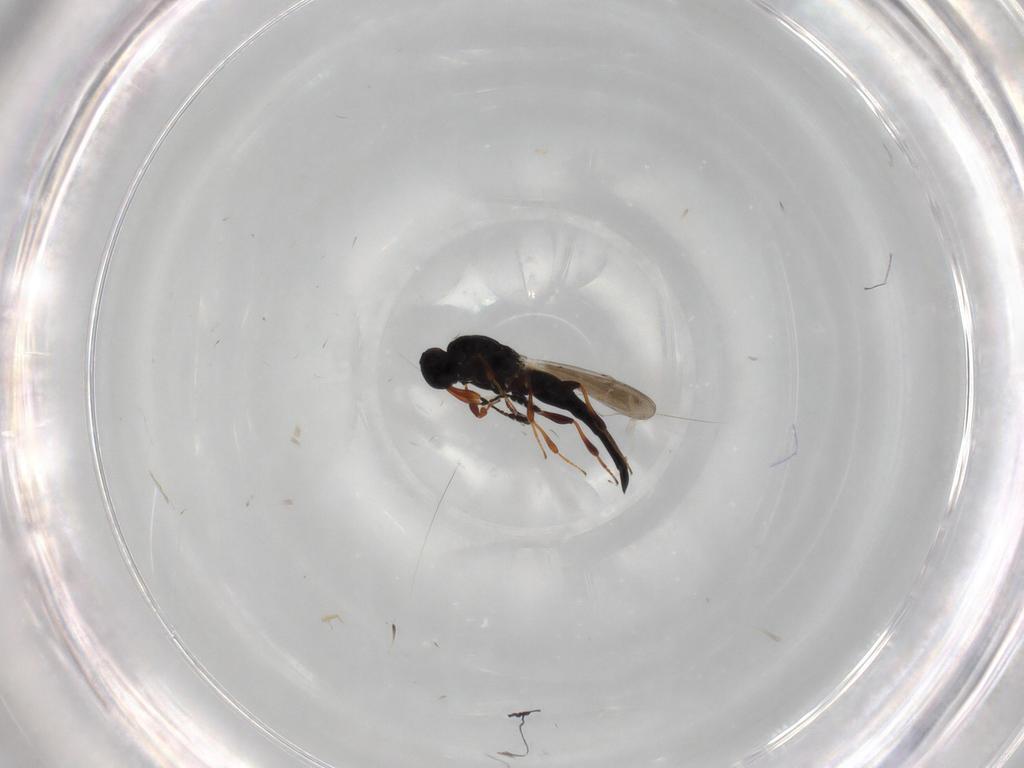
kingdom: Animalia
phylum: Arthropoda
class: Insecta
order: Hymenoptera
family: Platygastridae
